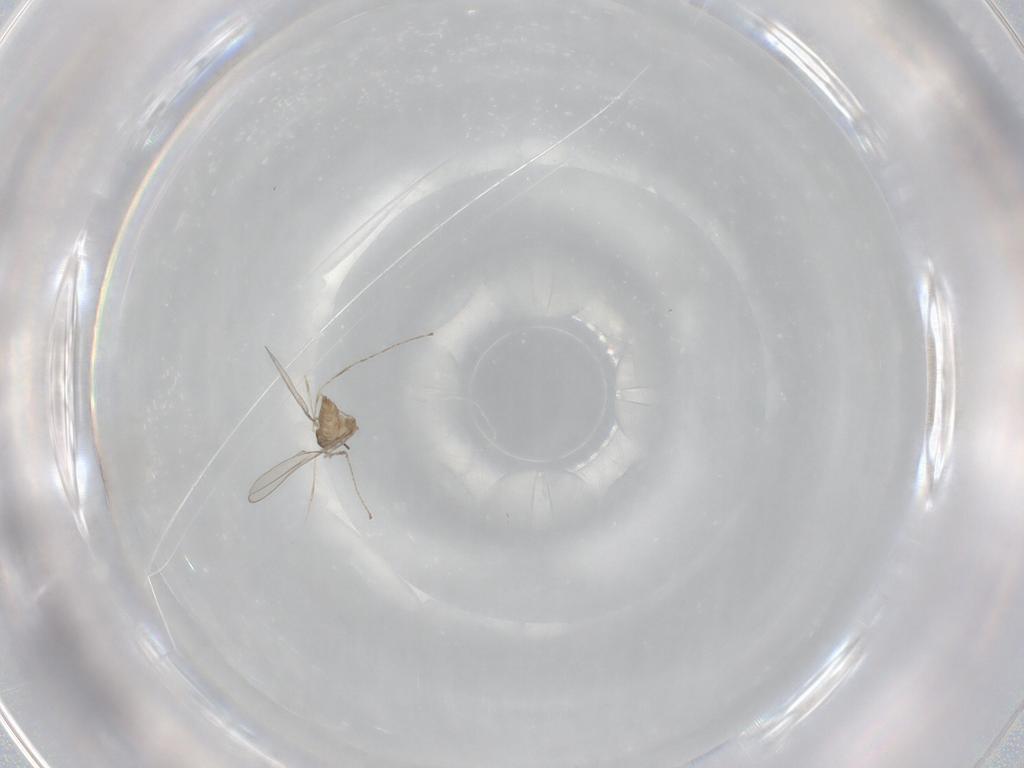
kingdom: Animalia
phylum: Arthropoda
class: Insecta
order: Diptera
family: Cecidomyiidae
